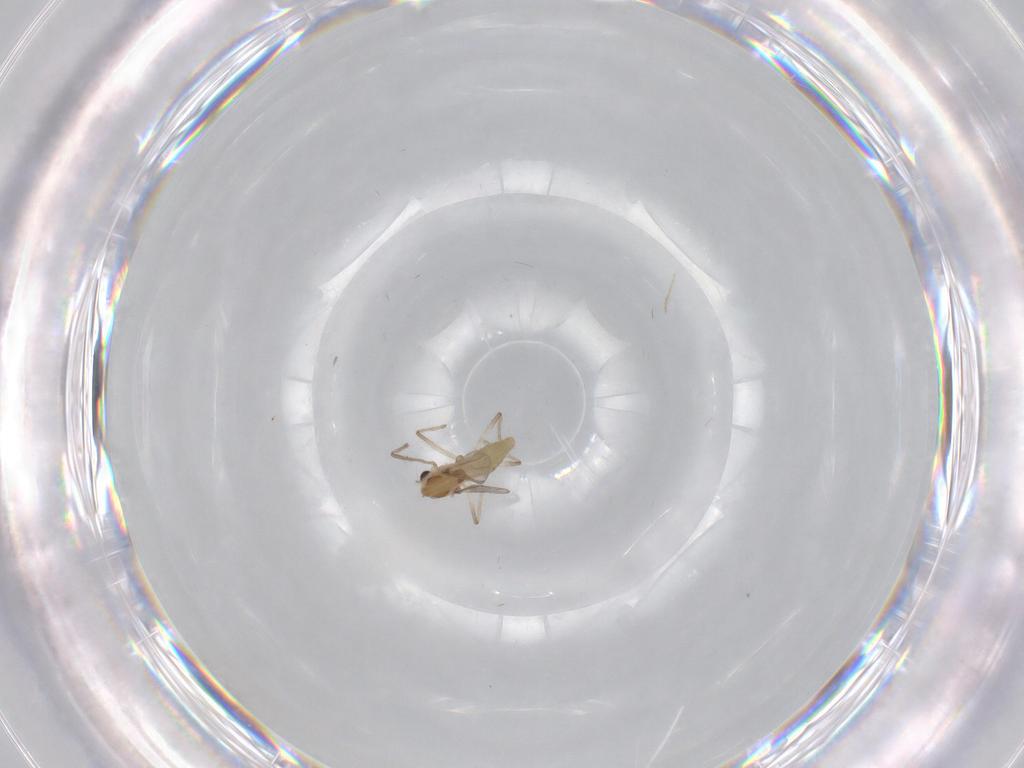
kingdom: Animalia
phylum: Arthropoda
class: Insecta
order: Diptera
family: Chironomidae
